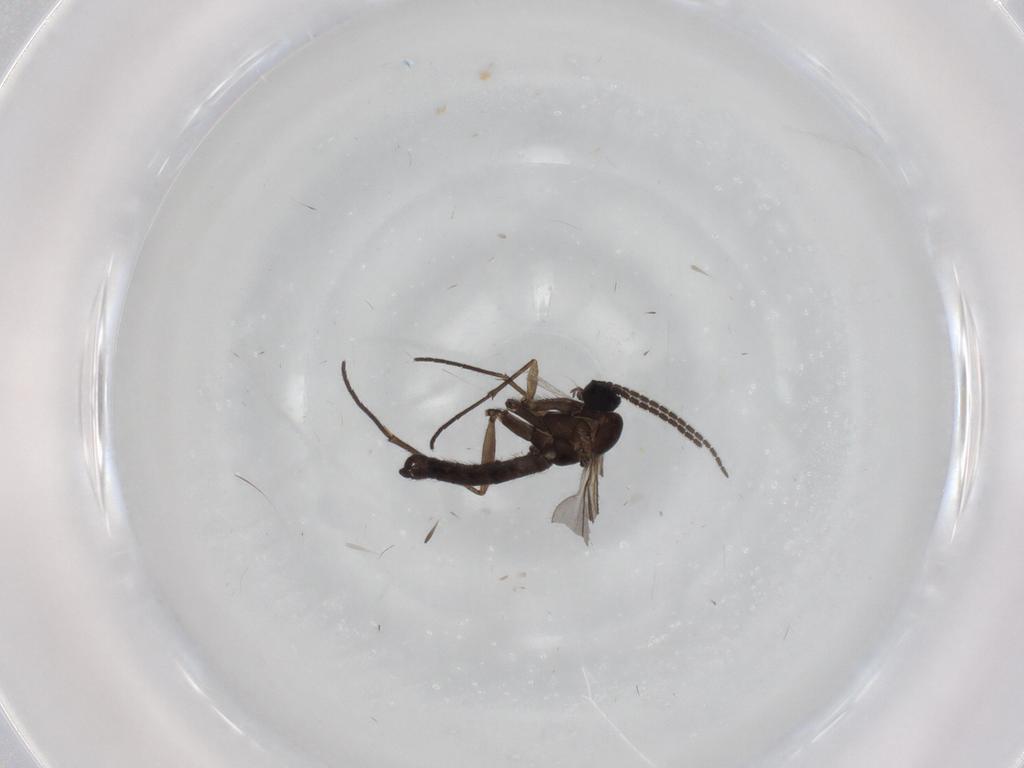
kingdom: Animalia
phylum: Arthropoda
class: Insecta
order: Diptera
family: Sciaridae
